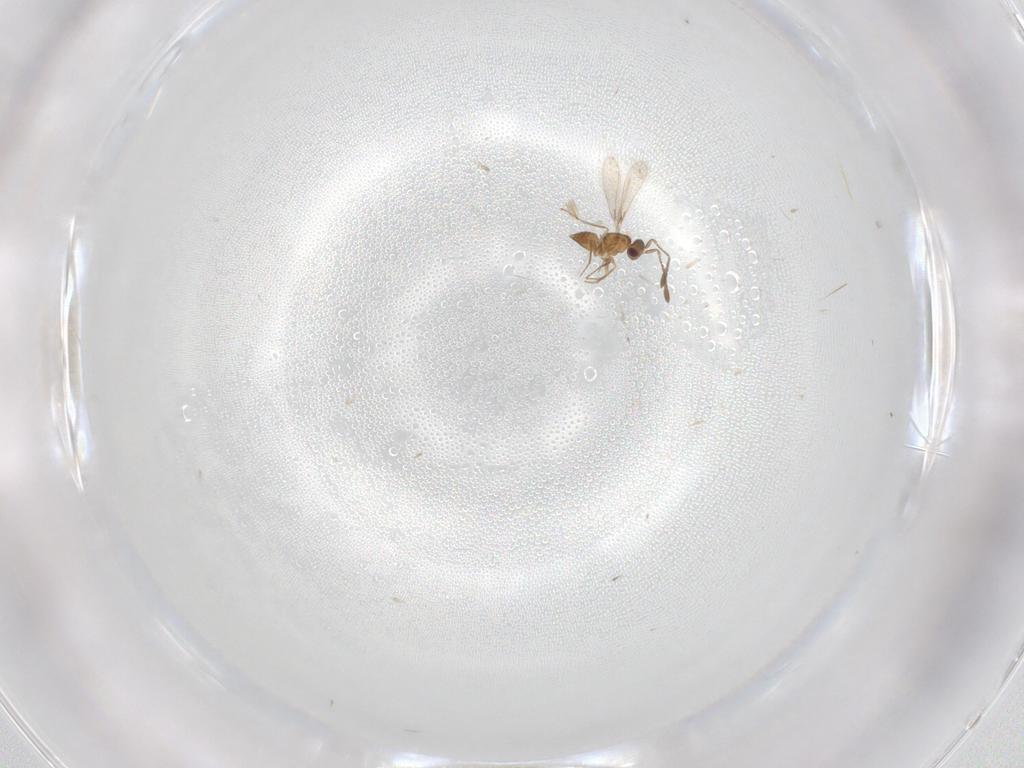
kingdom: Animalia
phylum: Arthropoda
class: Insecta
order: Hymenoptera
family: Mymaridae
